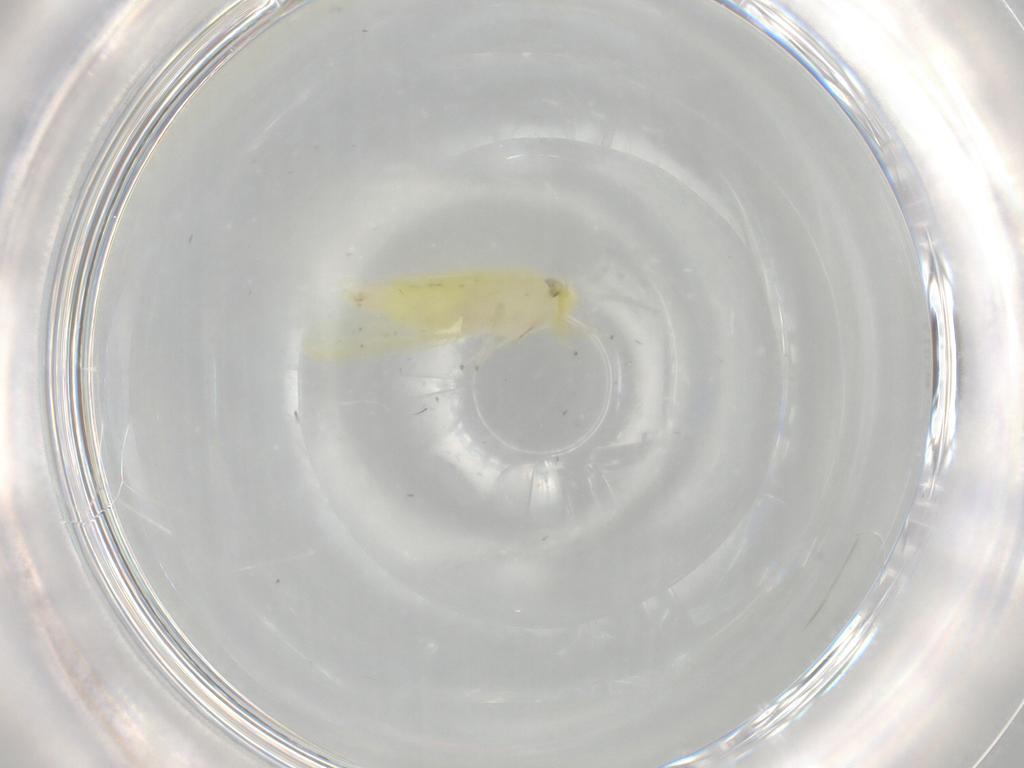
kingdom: Animalia
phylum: Arthropoda
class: Insecta
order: Hemiptera
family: Cicadellidae
